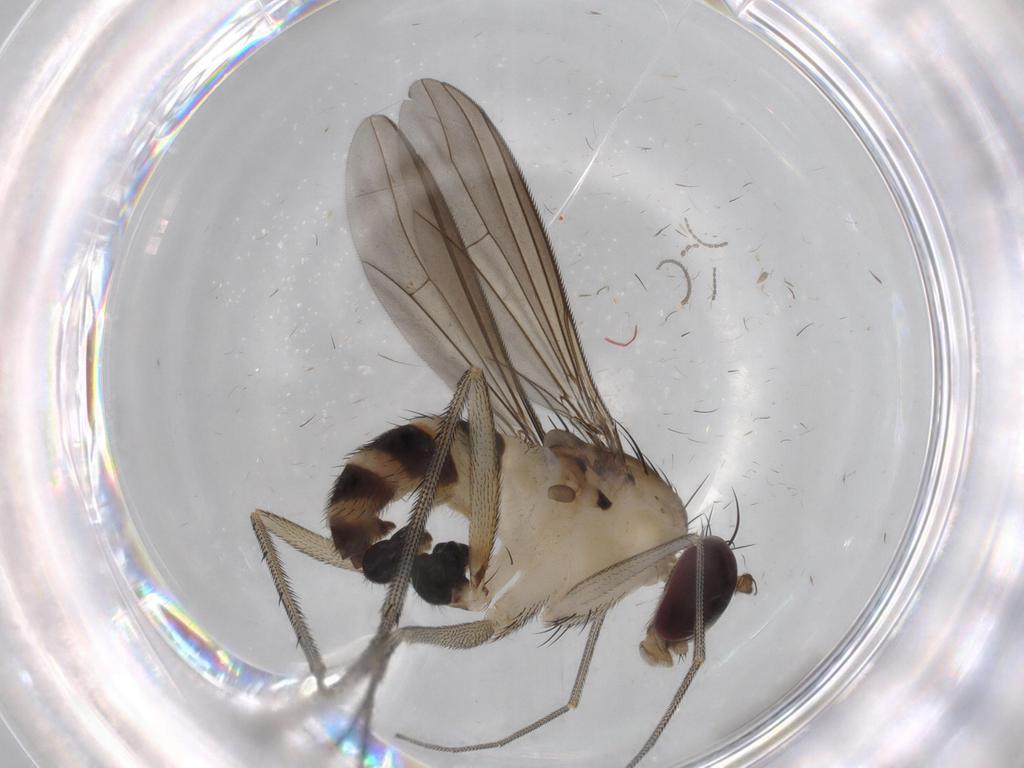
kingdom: Animalia
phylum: Arthropoda
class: Insecta
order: Diptera
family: Cecidomyiidae
